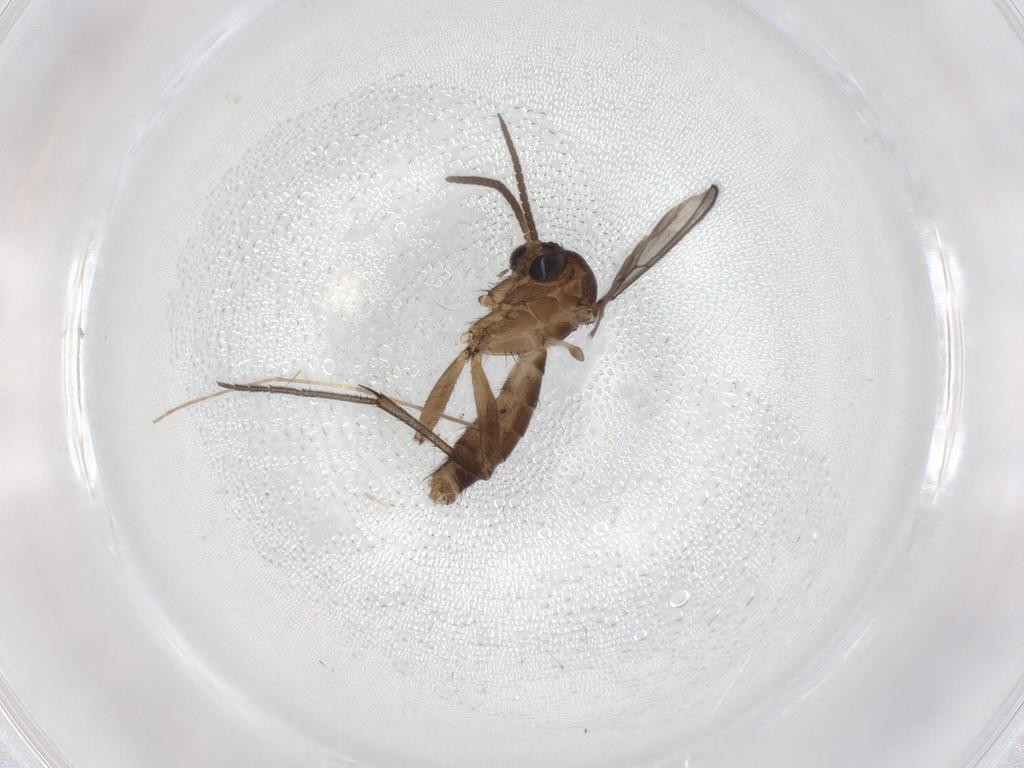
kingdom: Animalia
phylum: Arthropoda
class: Insecta
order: Diptera
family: Mycetophilidae
